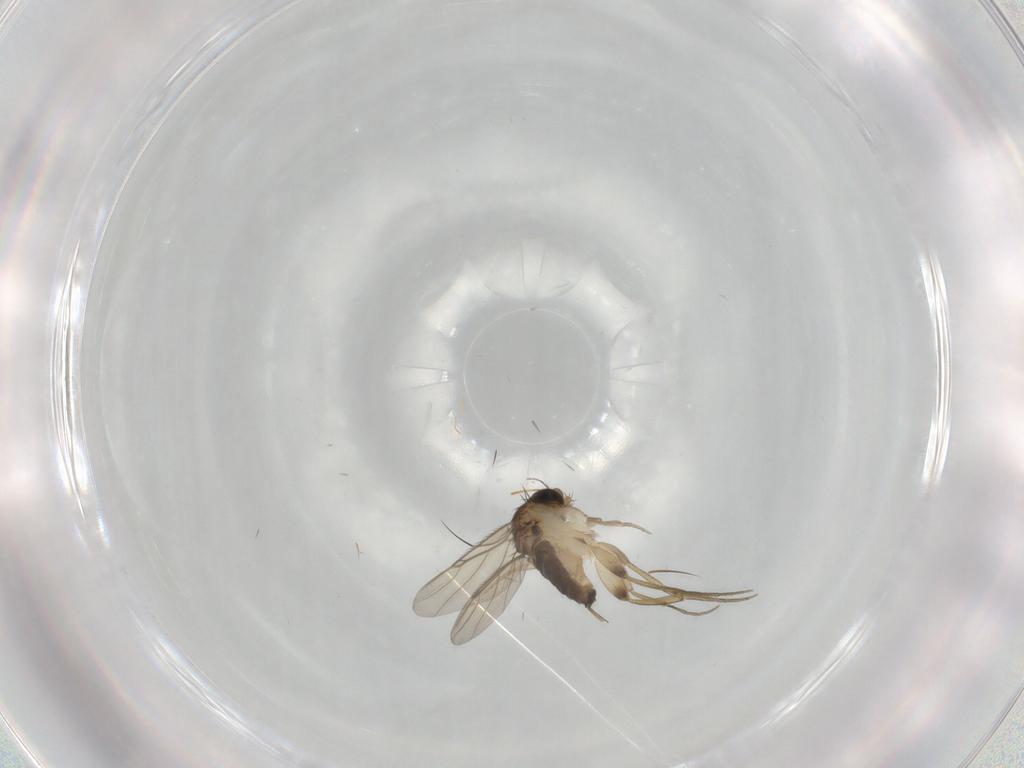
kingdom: Animalia
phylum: Arthropoda
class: Insecta
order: Diptera
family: Phoridae
